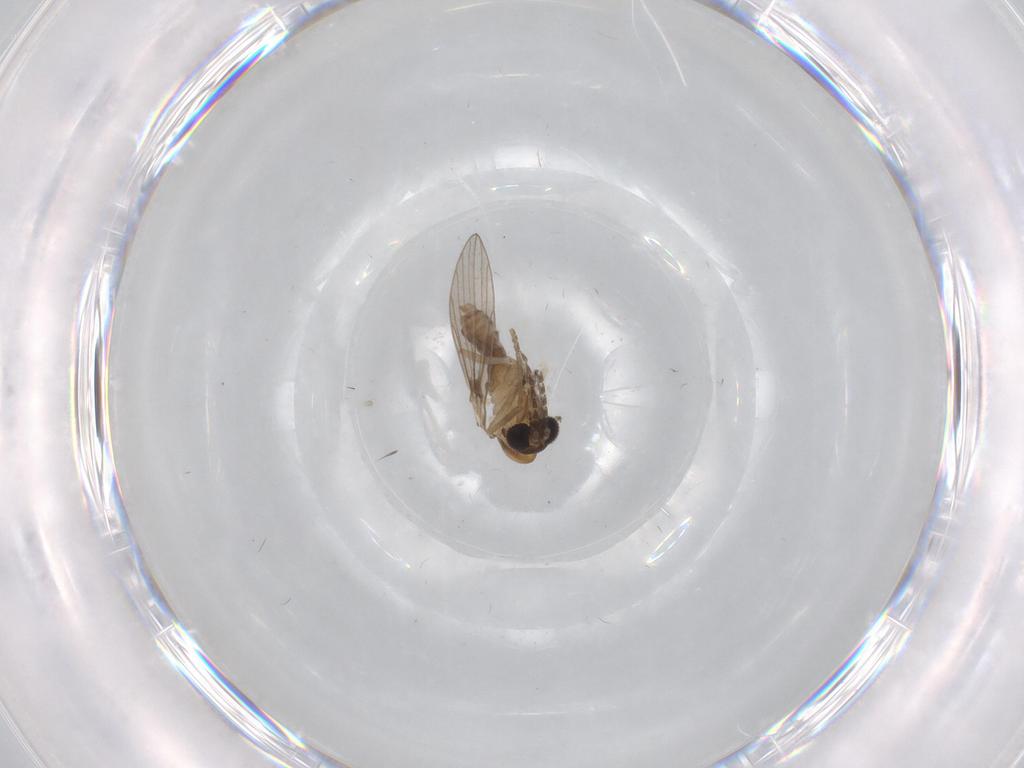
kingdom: Animalia
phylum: Arthropoda
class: Insecta
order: Diptera
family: Psychodidae
